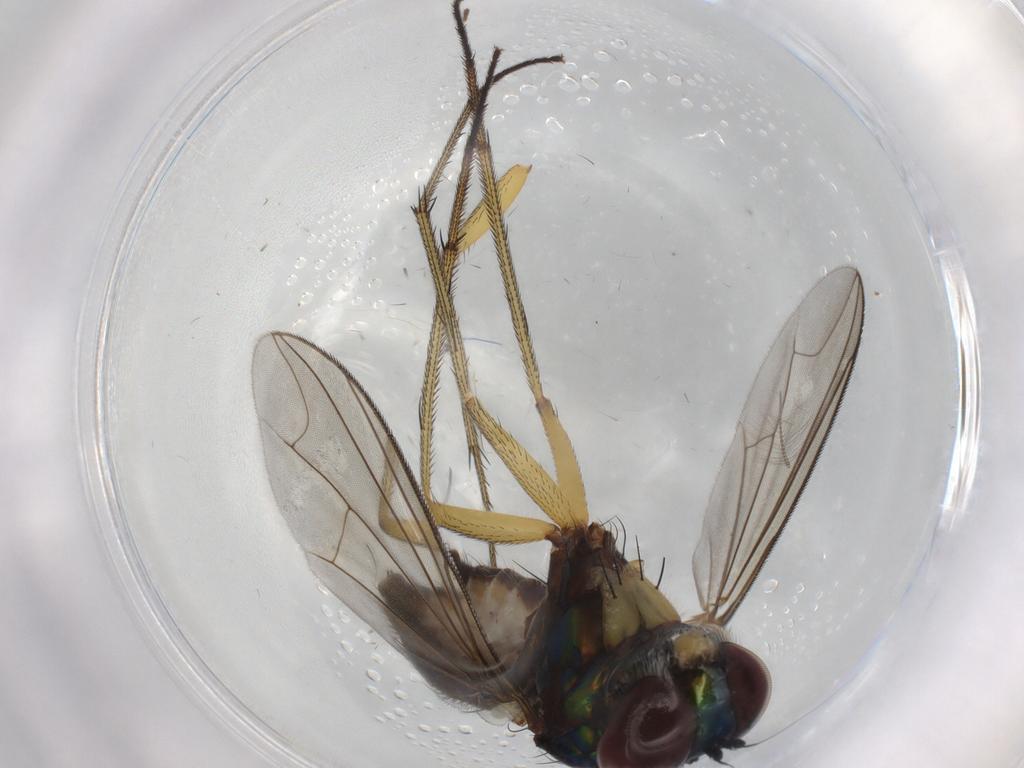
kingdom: Animalia
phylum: Arthropoda
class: Insecta
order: Diptera
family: Dolichopodidae
